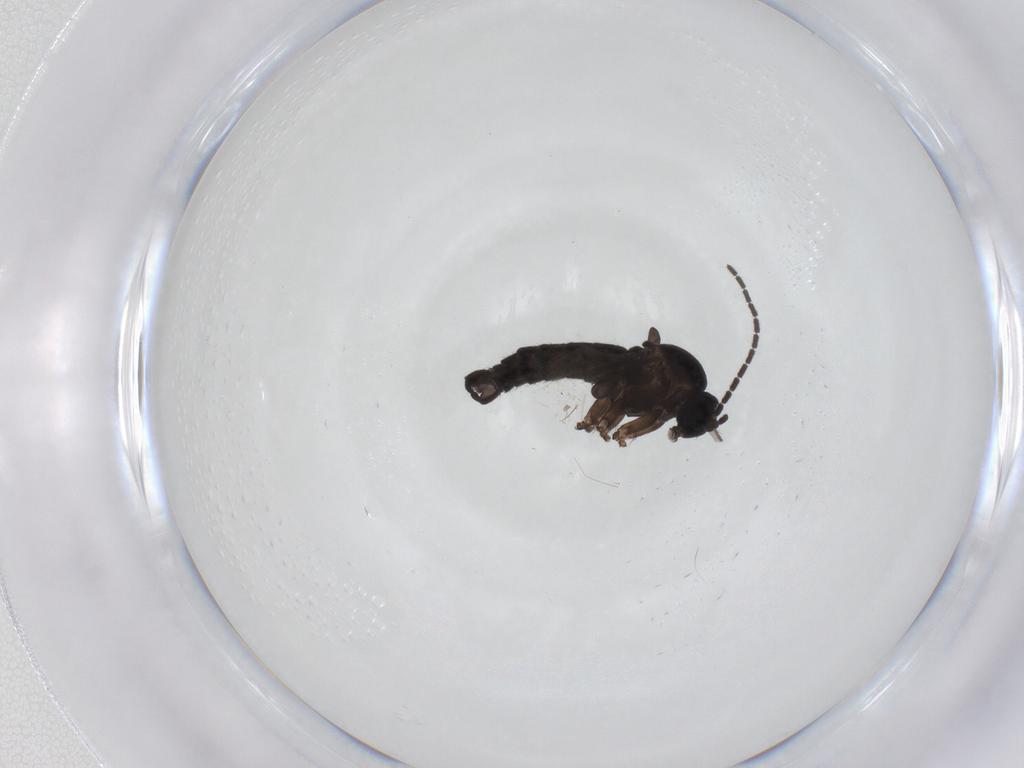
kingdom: Animalia
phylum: Arthropoda
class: Insecta
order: Diptera
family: Sciaridae
